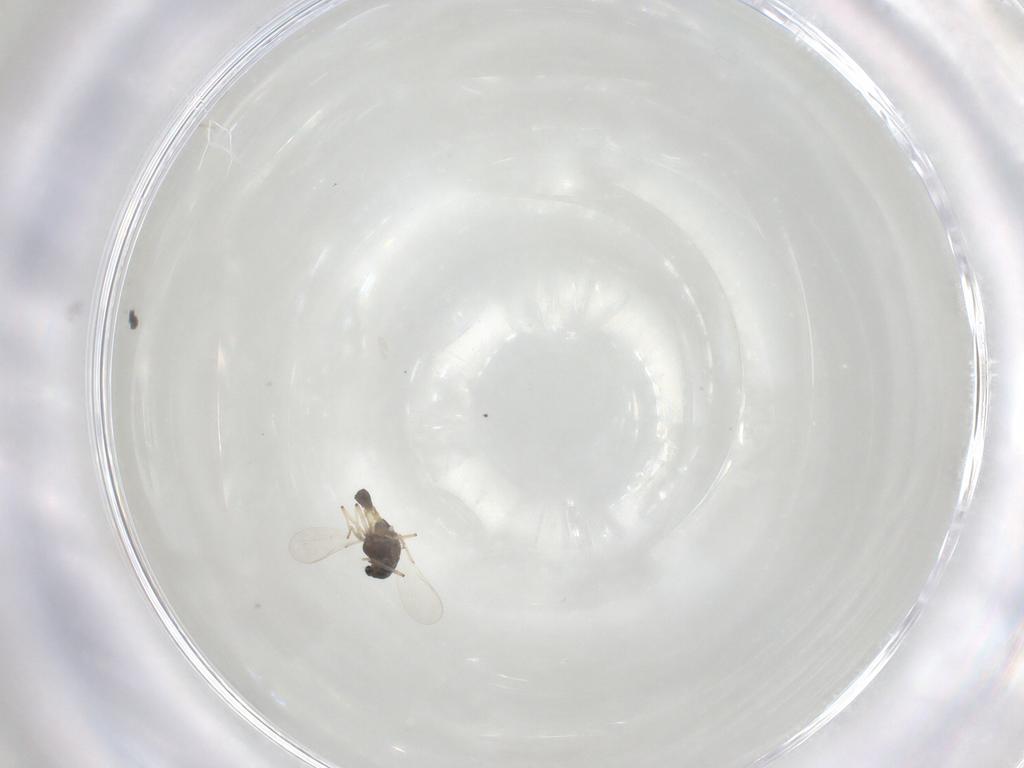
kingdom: Animalia
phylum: Arthropoda
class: Insecta
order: Diptera
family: Chironomidae
